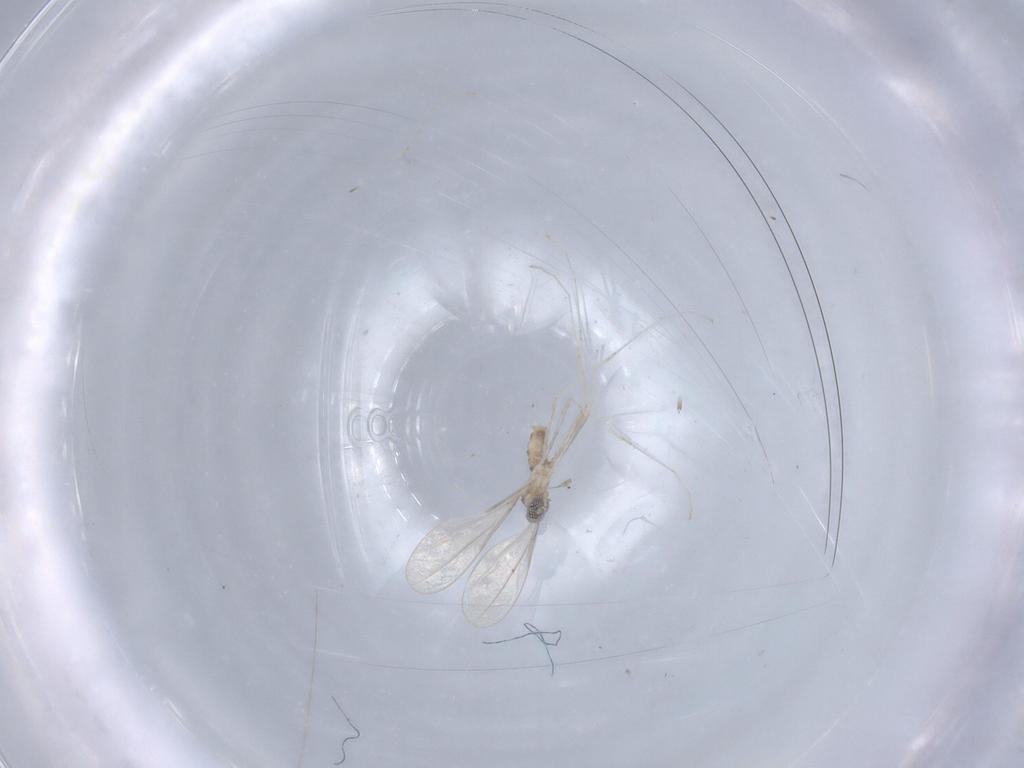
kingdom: Animalia
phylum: Arthropoda
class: Insecta
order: Diptera
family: Cecidomyiidae
